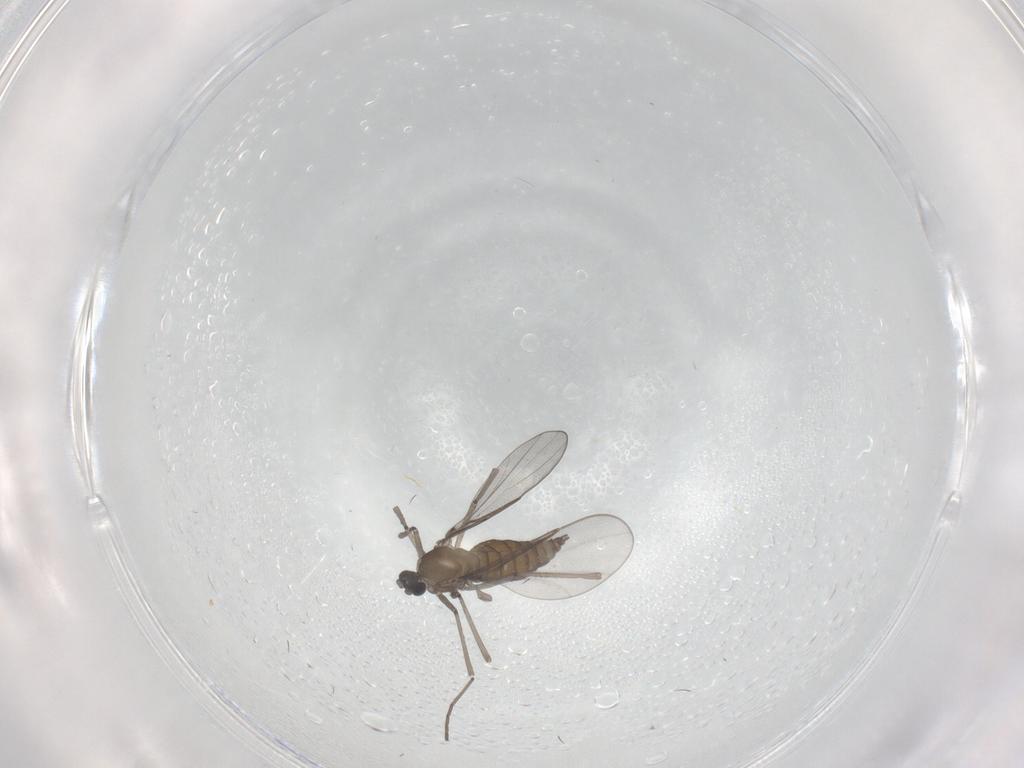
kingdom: Animalia
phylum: Arthropoda
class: Insecta
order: Diptera
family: Cecidomyiidae
